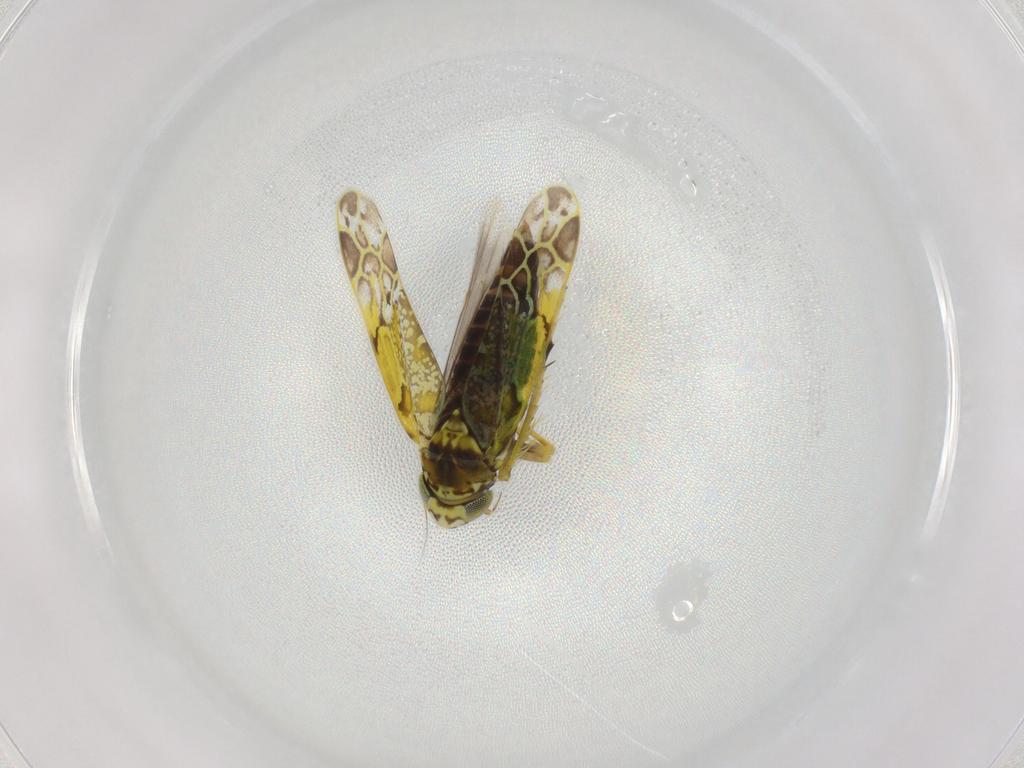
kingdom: Animalia
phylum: Arthropoda
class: Insecta
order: Hemiptera
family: Cicadellidae
